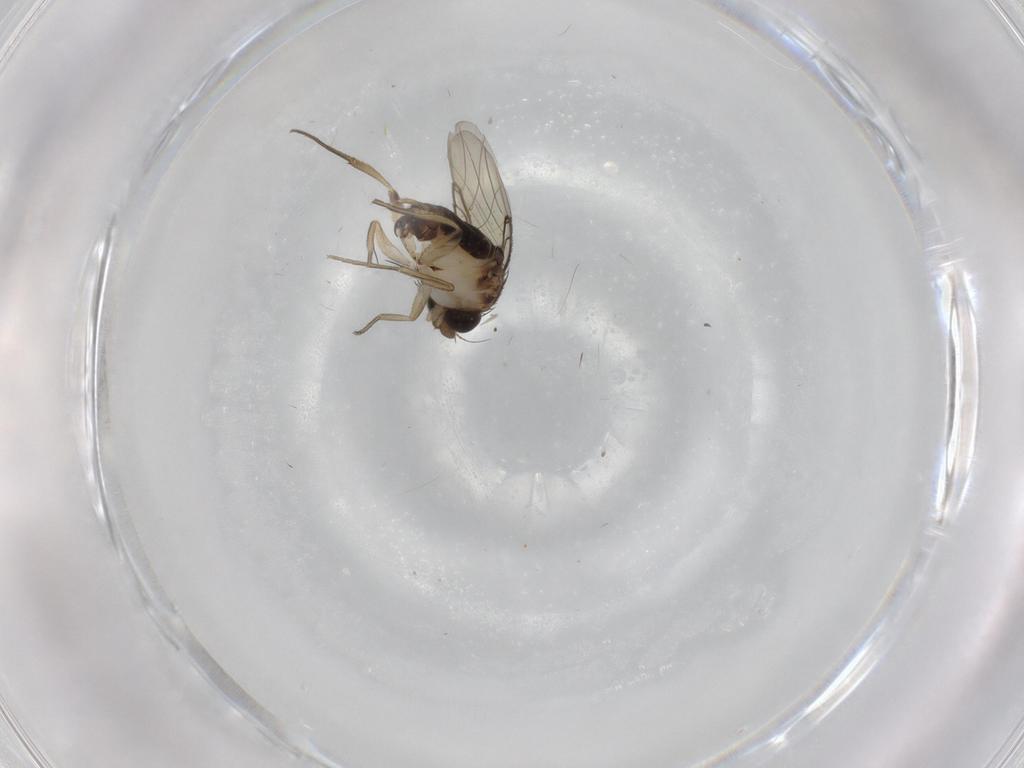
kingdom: Animalia
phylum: Arthropoda
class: Insecta
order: Diptera
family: Phoridae
